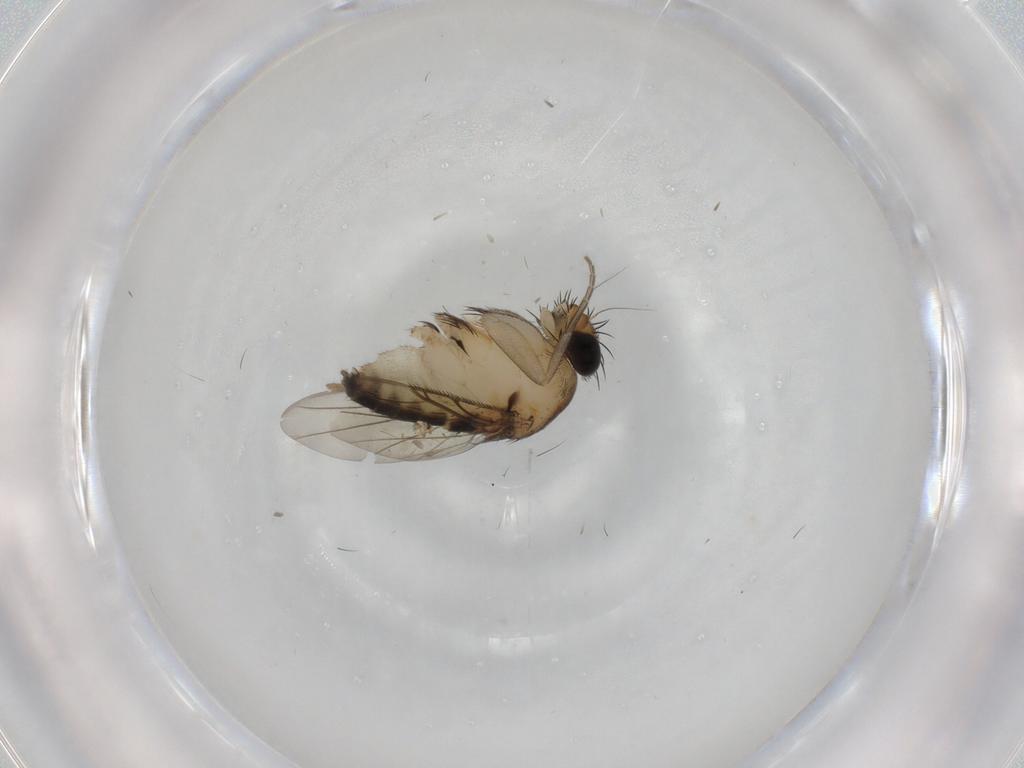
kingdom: Animalia
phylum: Arthropoda
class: Insecta
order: Diptera
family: Phoridae
